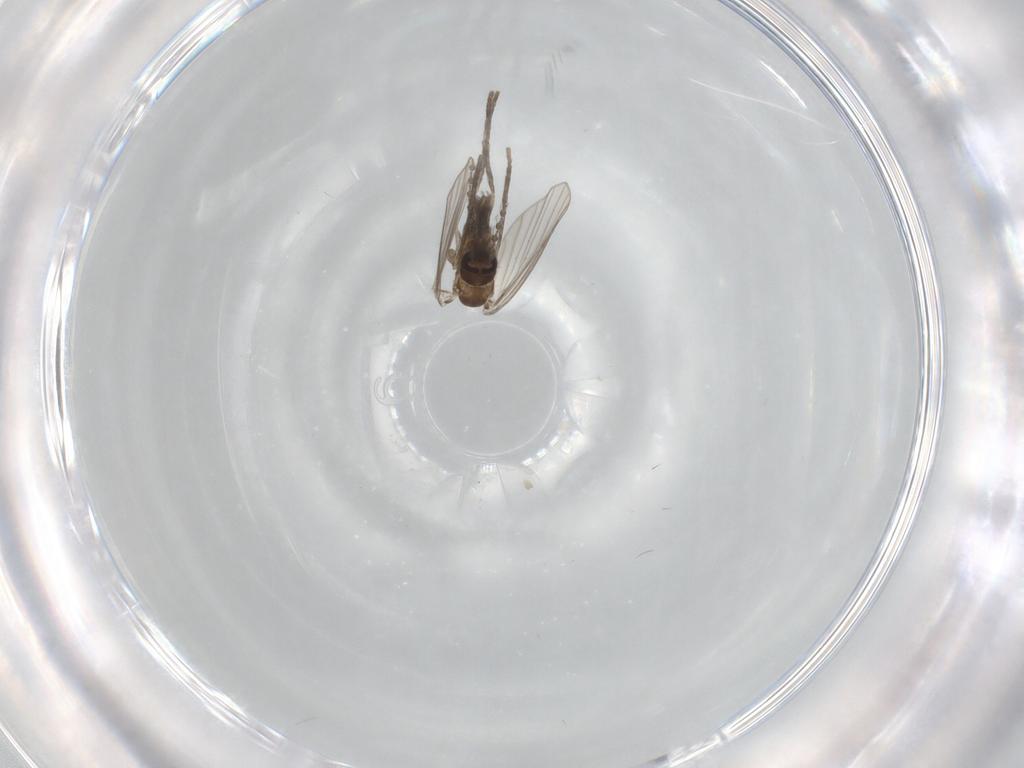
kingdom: Animalia
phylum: Arthropoda
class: Insecta
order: Diptera
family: Psychodidae
